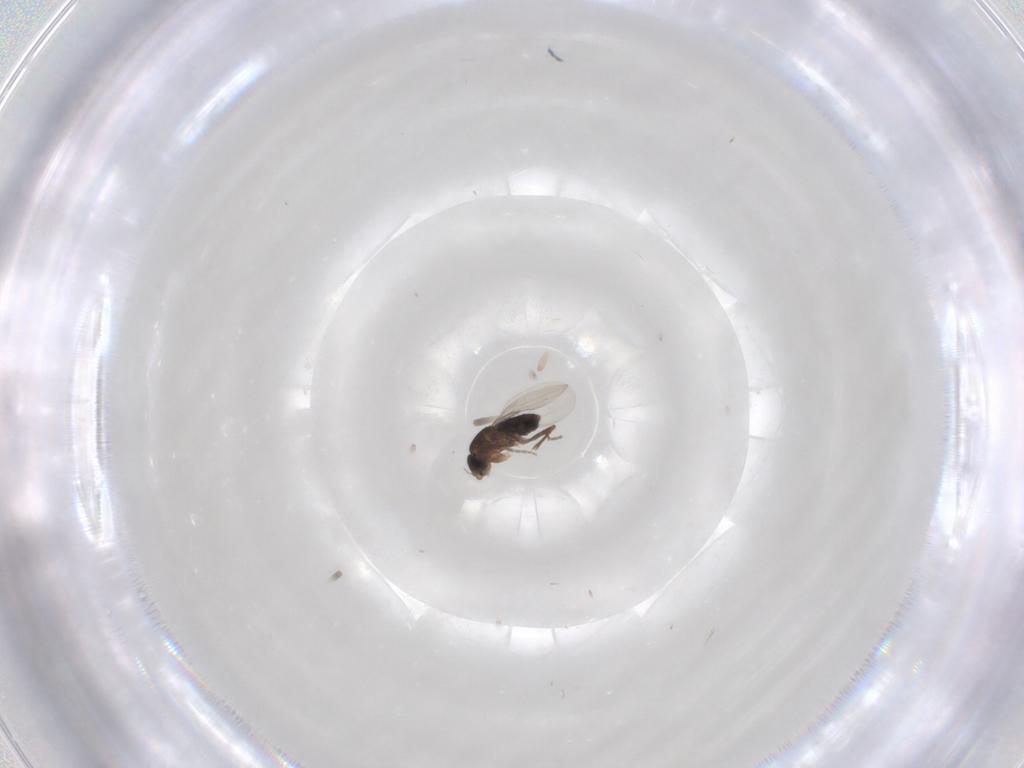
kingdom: Animalia
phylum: Arthropoda
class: Insecta
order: Diptera
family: Phoridae
